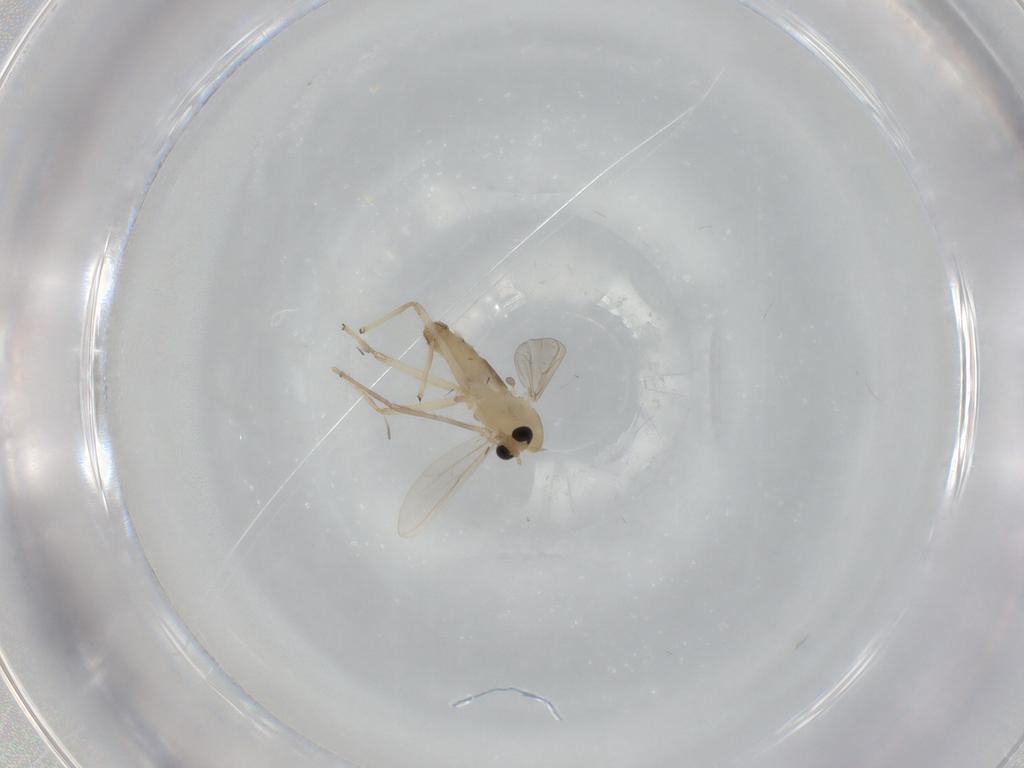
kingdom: Animalia
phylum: Arthropoda
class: Insecta
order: Diptera
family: Chironomidae
